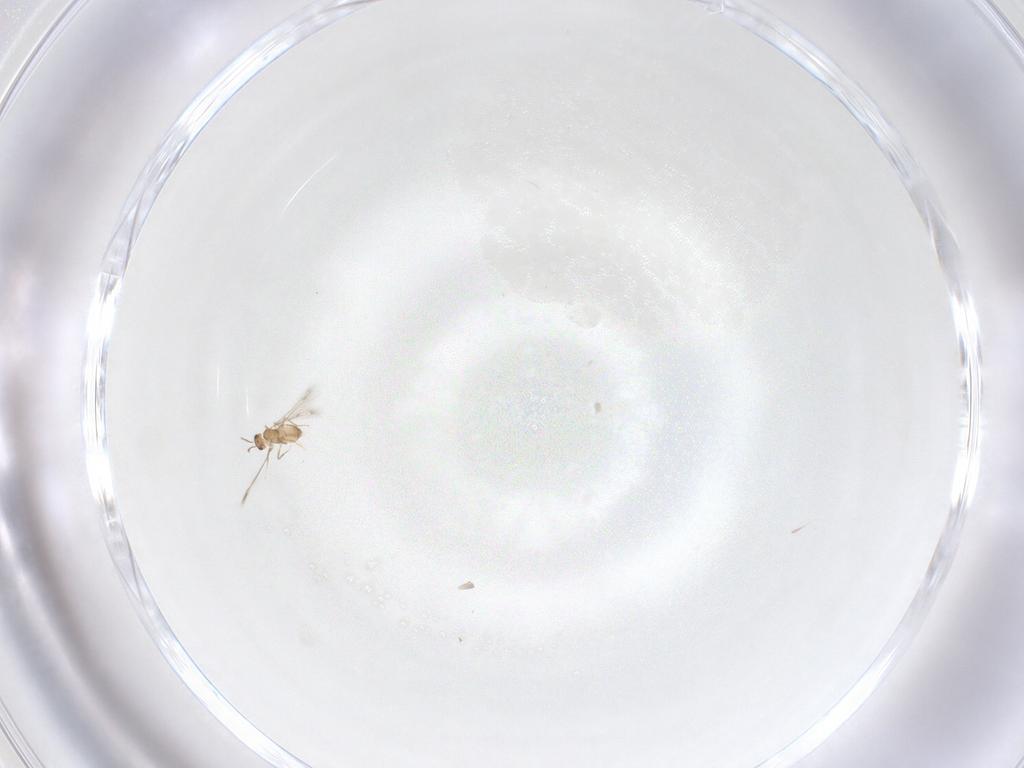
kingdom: Animalia
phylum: Arthropoda
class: Insecta
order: Hymenoptera
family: Mymaridae
